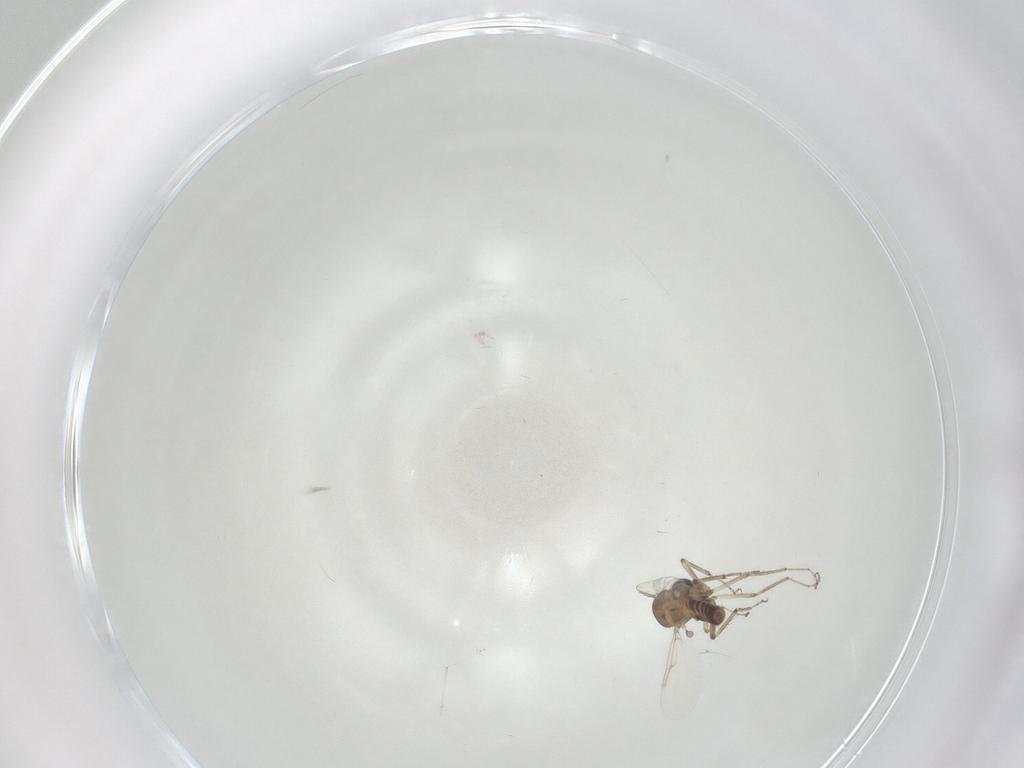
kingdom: Animalia
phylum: Arthropoda
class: Insecta
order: Diptera
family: Ceratopogonidae
